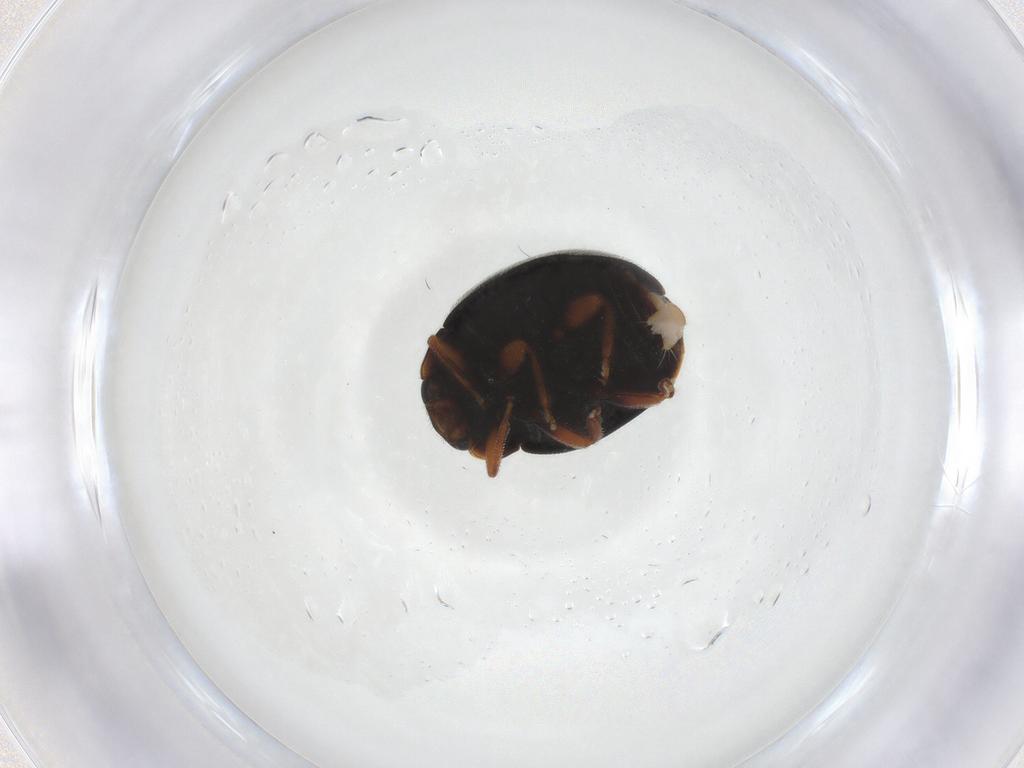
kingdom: Animalia
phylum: Arthropoda
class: Insecta
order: Coleoptera
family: Coccinellidae
